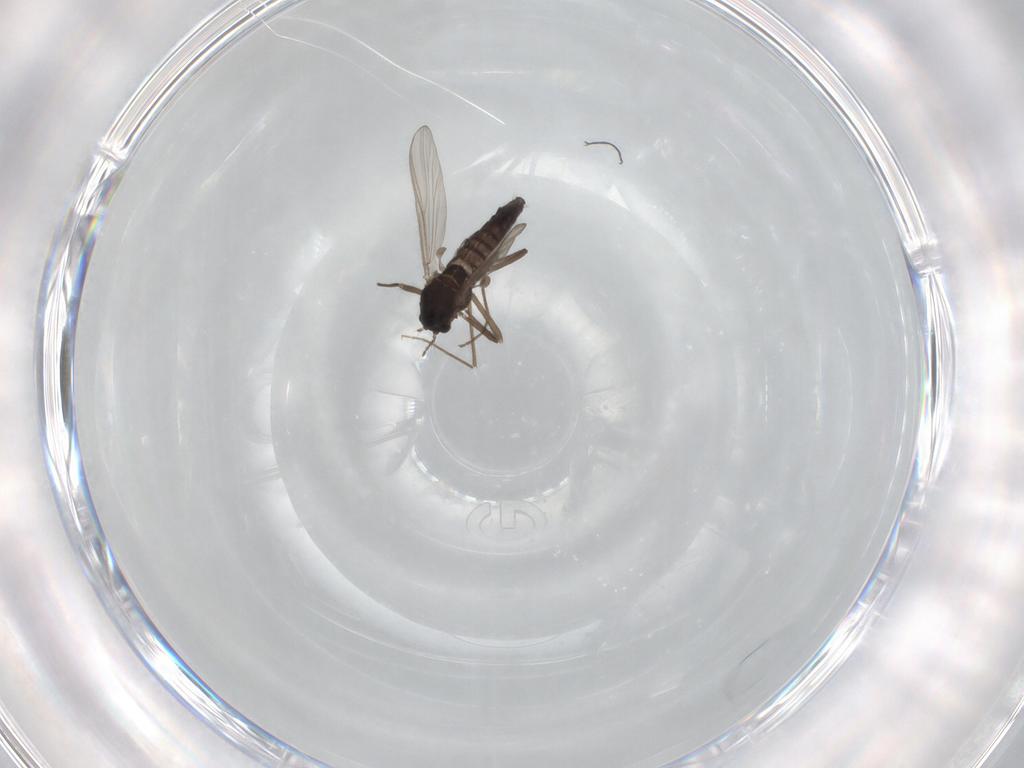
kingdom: Animalia
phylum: Arthropoda
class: Insecta
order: Diptera
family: Chironomidae
